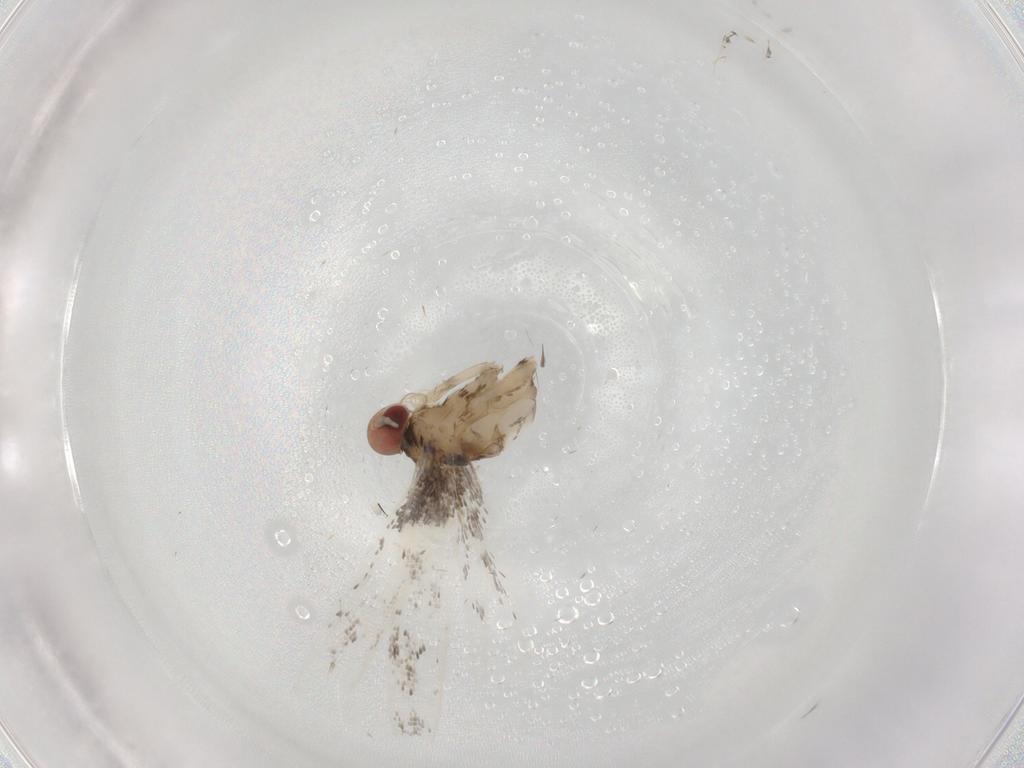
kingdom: Animalia
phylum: Arthropoda
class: Insecta
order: Lepidoptera
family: Gracillariidae
